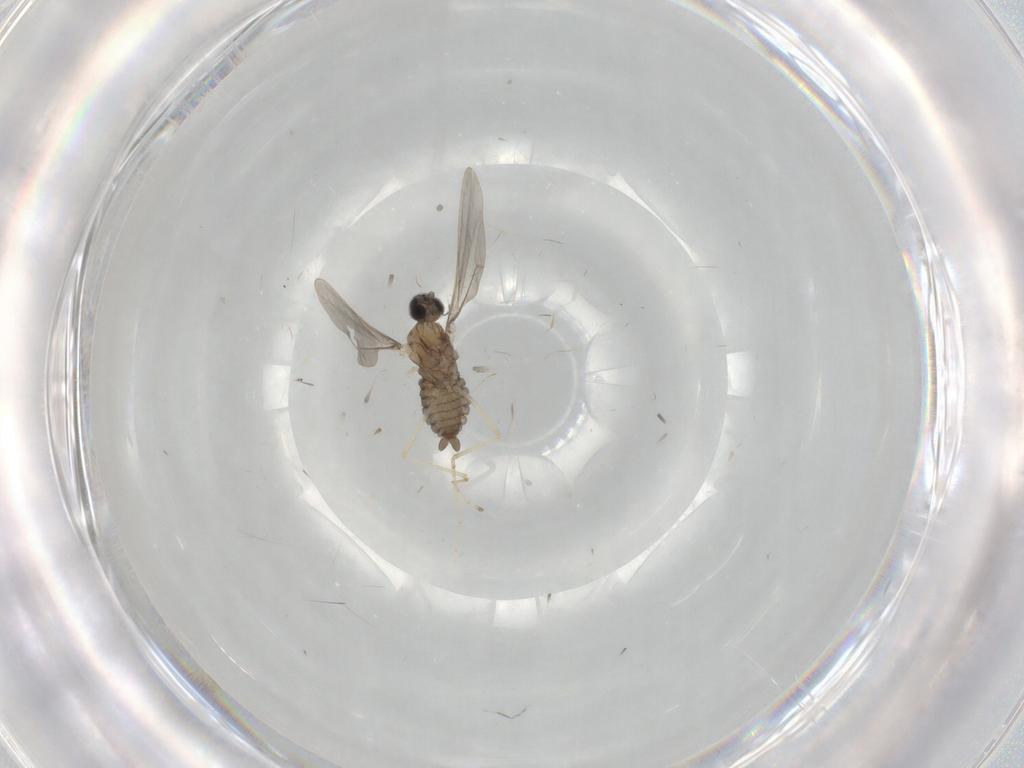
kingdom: Animalia
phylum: Arthropoda
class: Insecta
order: Diptera
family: Cecidomyiidae
